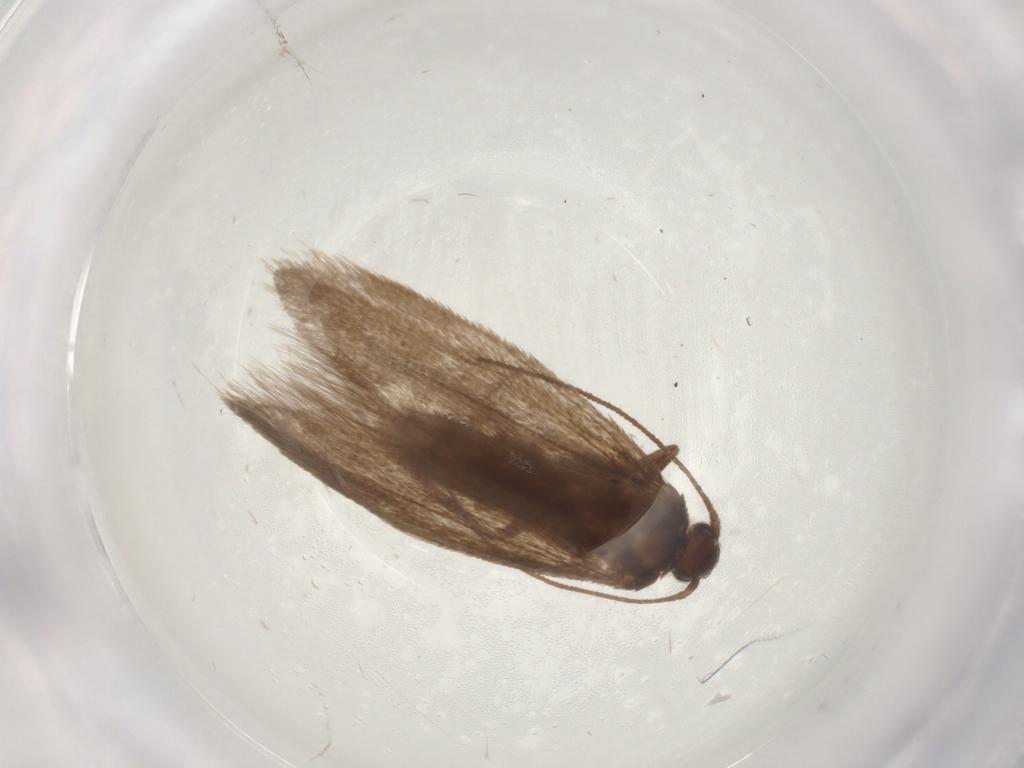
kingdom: Animalia
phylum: Arthropoda
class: Insecta
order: Lepidoptera
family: Limacodidae
